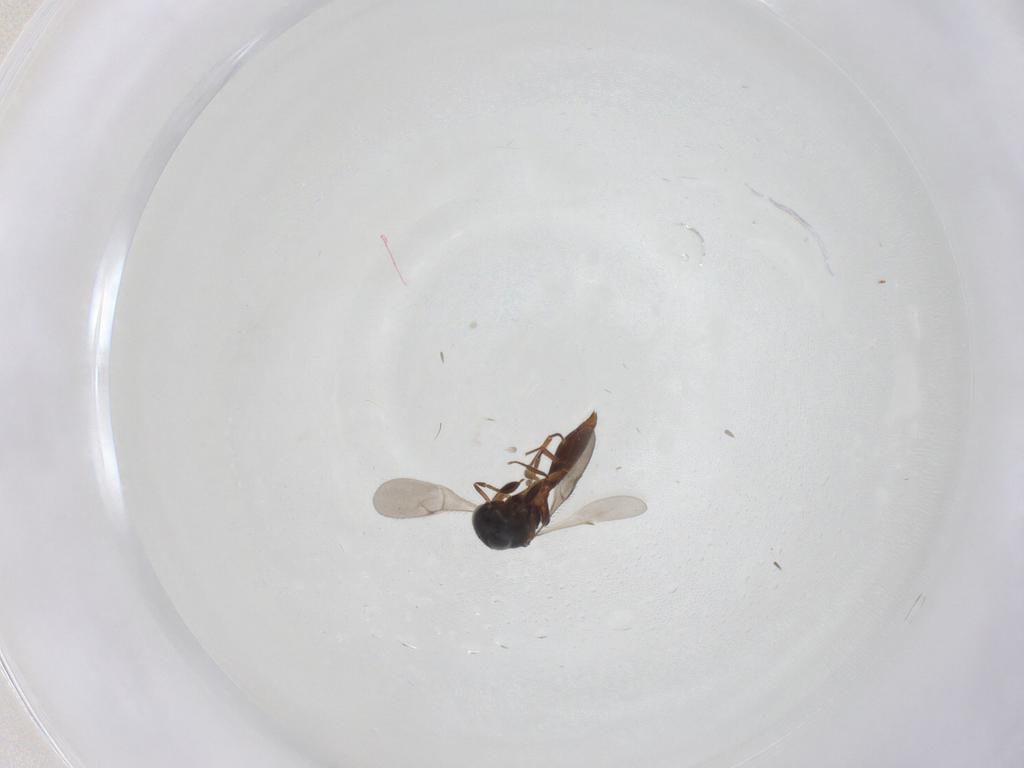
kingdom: Animalia
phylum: Arthropoda
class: Insecta
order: Hymenoptera
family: Scelionidae
